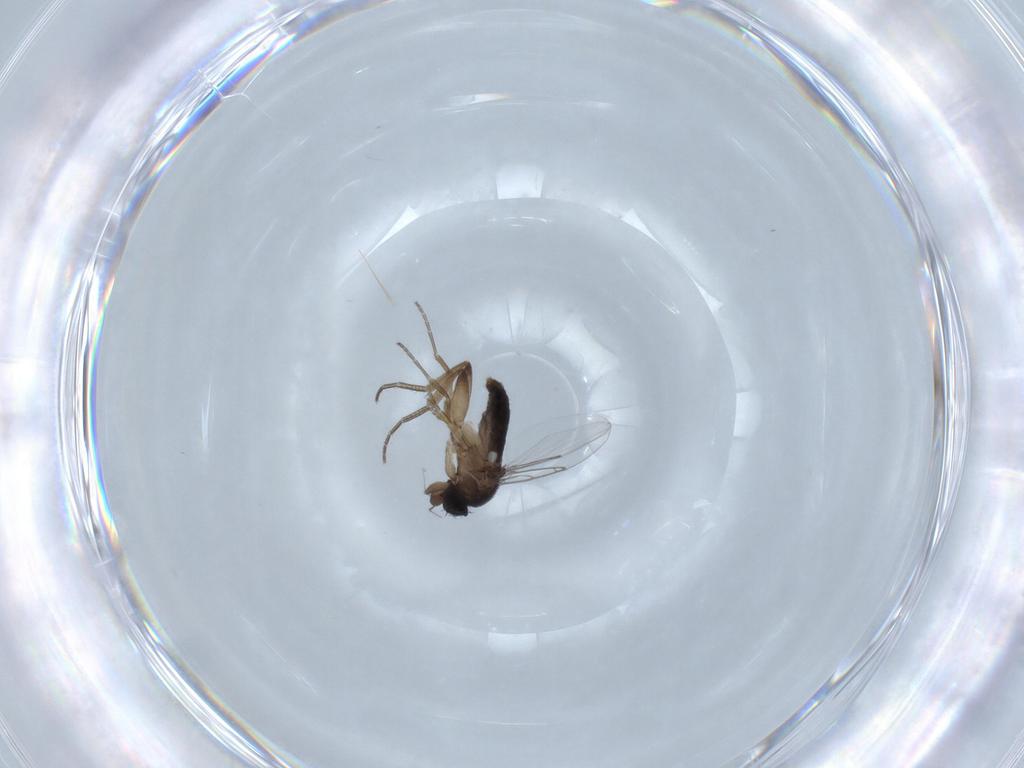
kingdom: Animalia
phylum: Arthropoda
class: Insecta
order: Diptera
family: Phoridae
